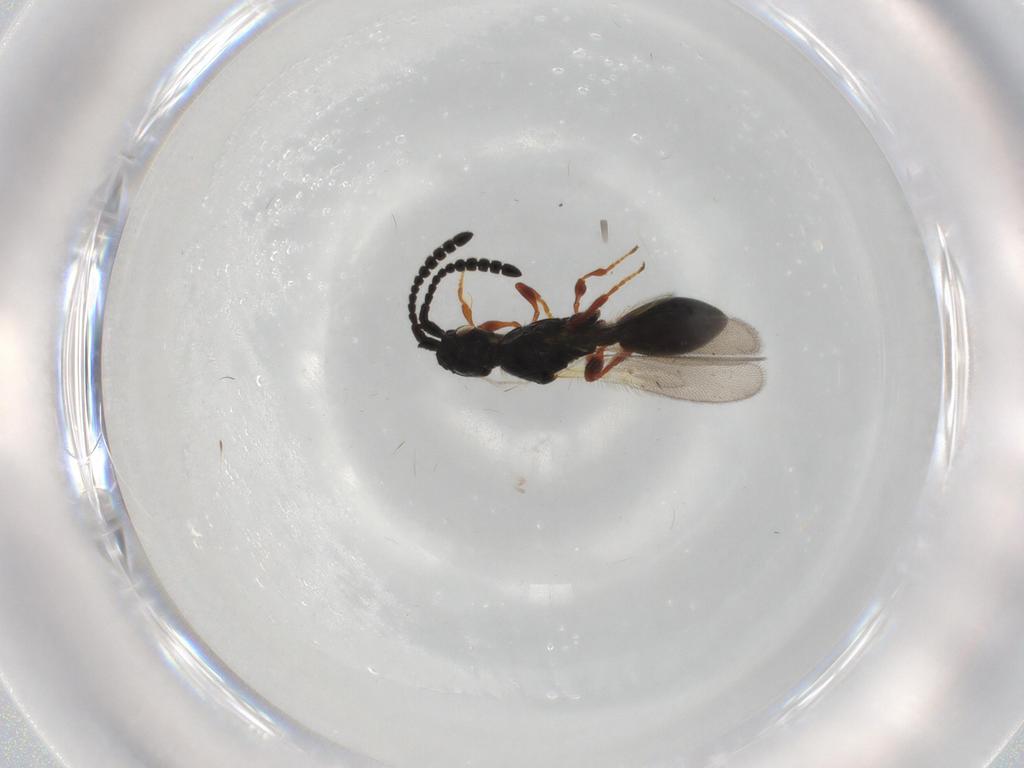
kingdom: Animalia
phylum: Arthropoda
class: Insecta
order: Hymenoptera
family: Diapriidae
